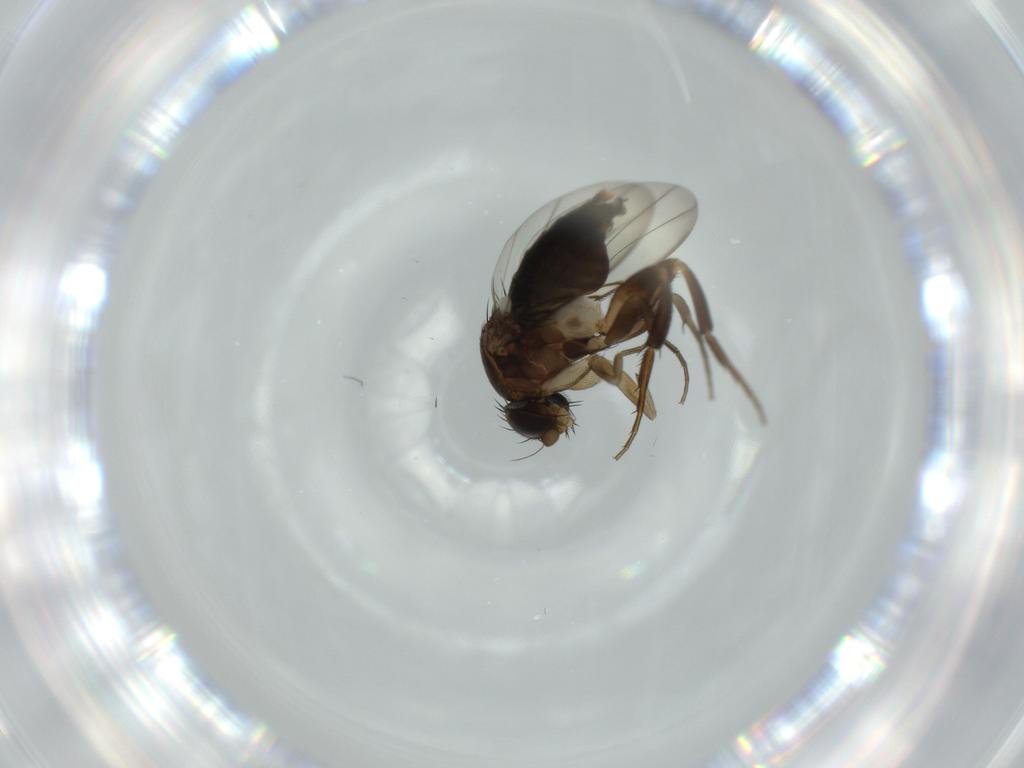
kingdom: Animalia
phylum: Arthropoda
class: Insecta
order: Diptera
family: Phoridae
